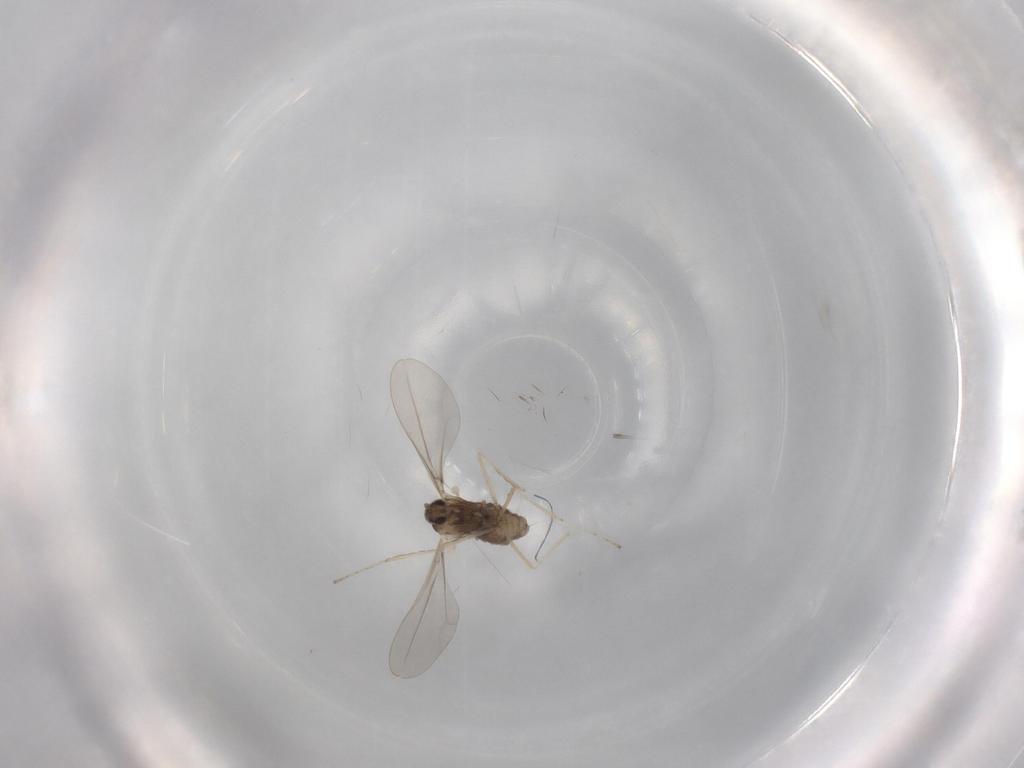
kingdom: Animalia
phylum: Arthropoda
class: Insecta
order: Diptera
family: Cecidomyiidae
